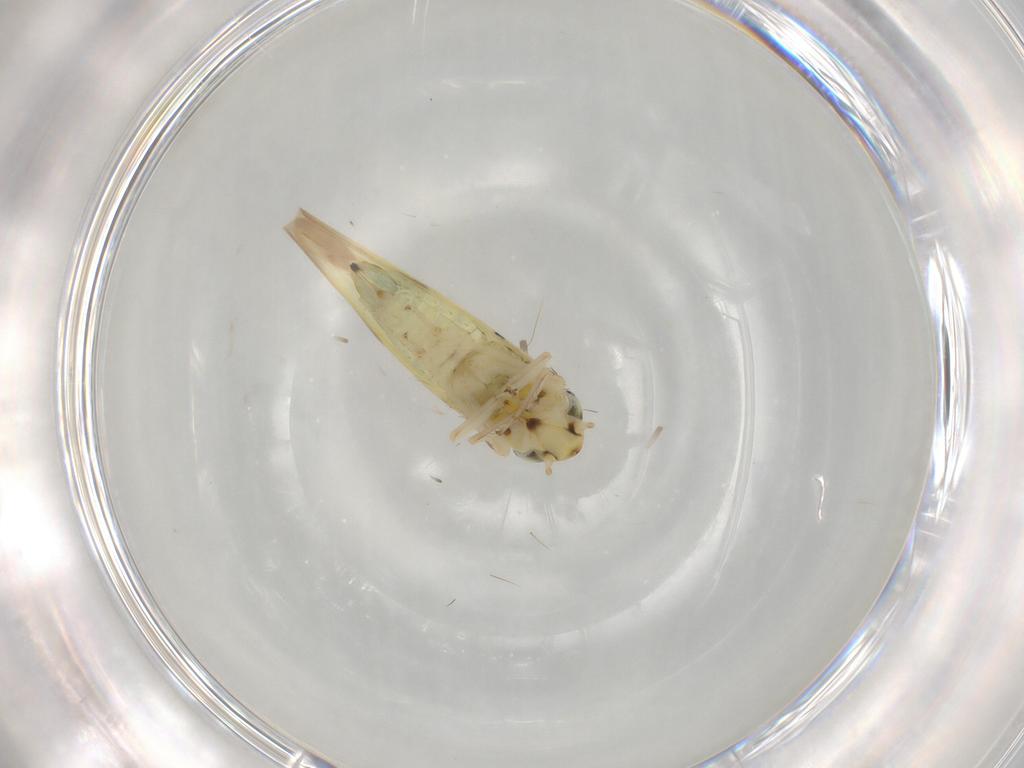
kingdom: Animalia
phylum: Arthropoda
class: Insecta
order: Hemiptera
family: Cicadellidae
